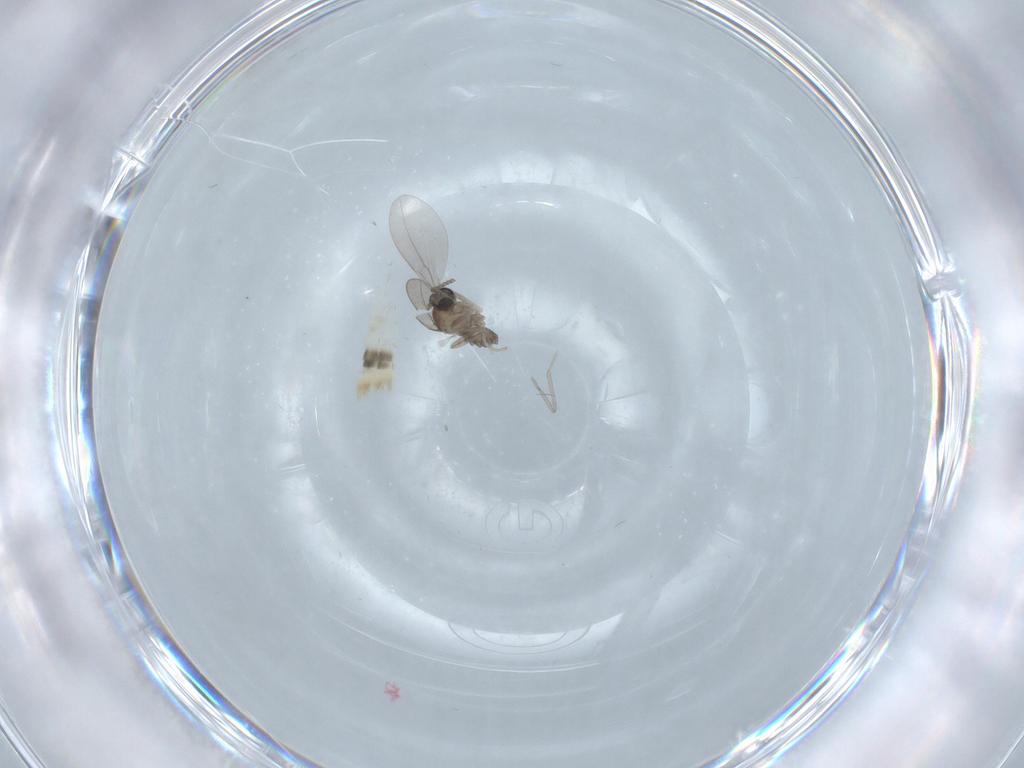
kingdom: Animalia
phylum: Arthropoda
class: Insecta
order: Diptera
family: Cecidomyiidae
